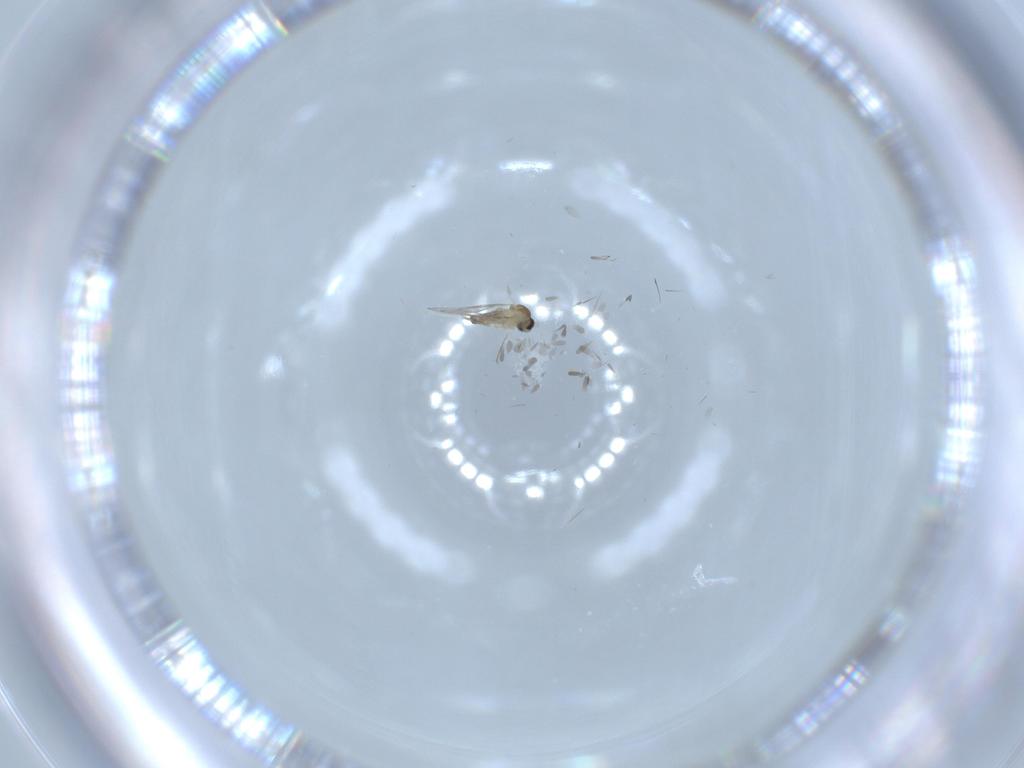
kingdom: Animalia
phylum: Arthropoda
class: Insecta
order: Diptera
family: Cecidomyiidae
